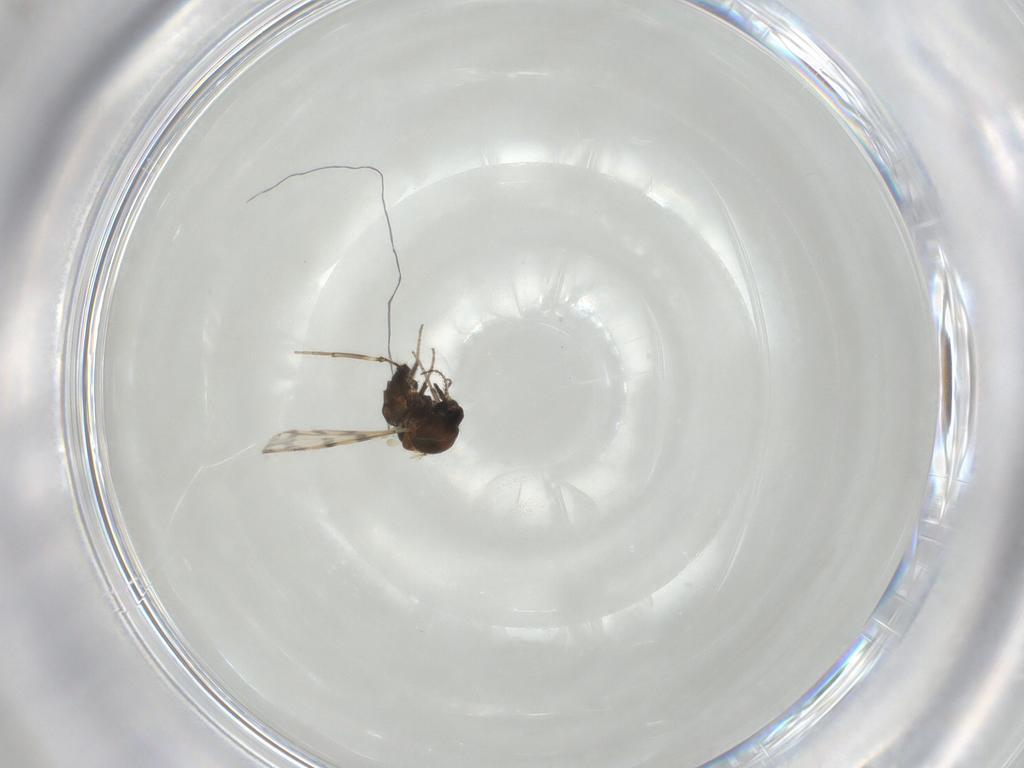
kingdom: Animalia
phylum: Arthropoda
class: Insecta
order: Diptera
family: Ceratopogonidae
